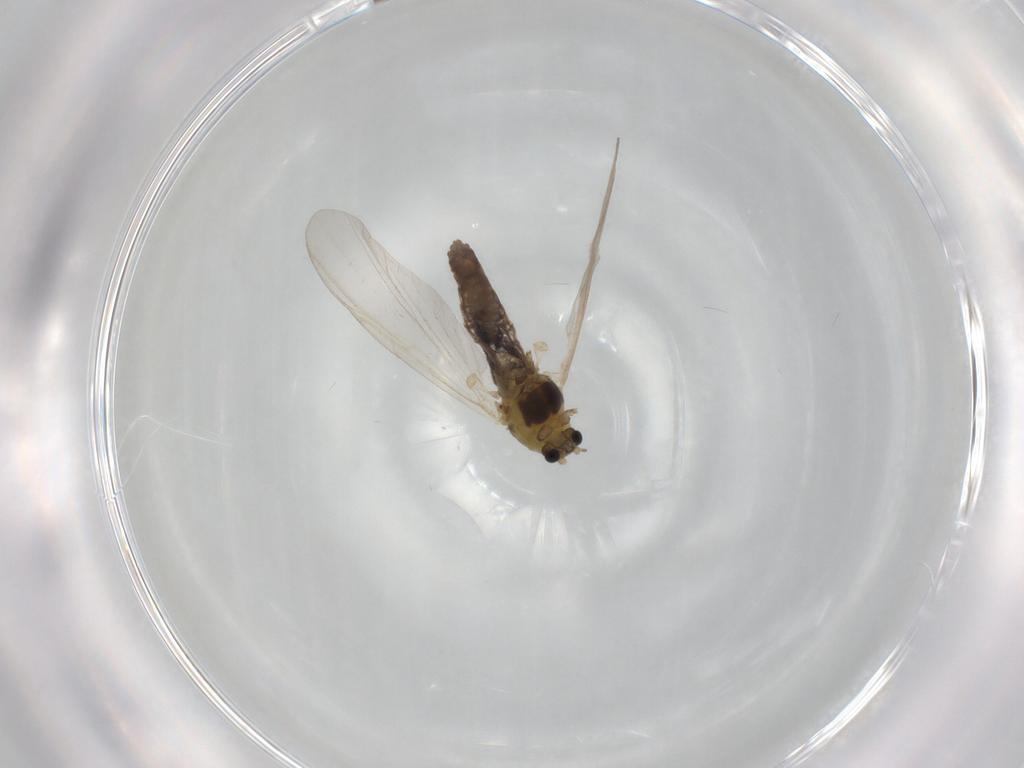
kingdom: Animalia
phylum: Arthropoda
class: Insecta
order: Diptera
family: Chironomidae
